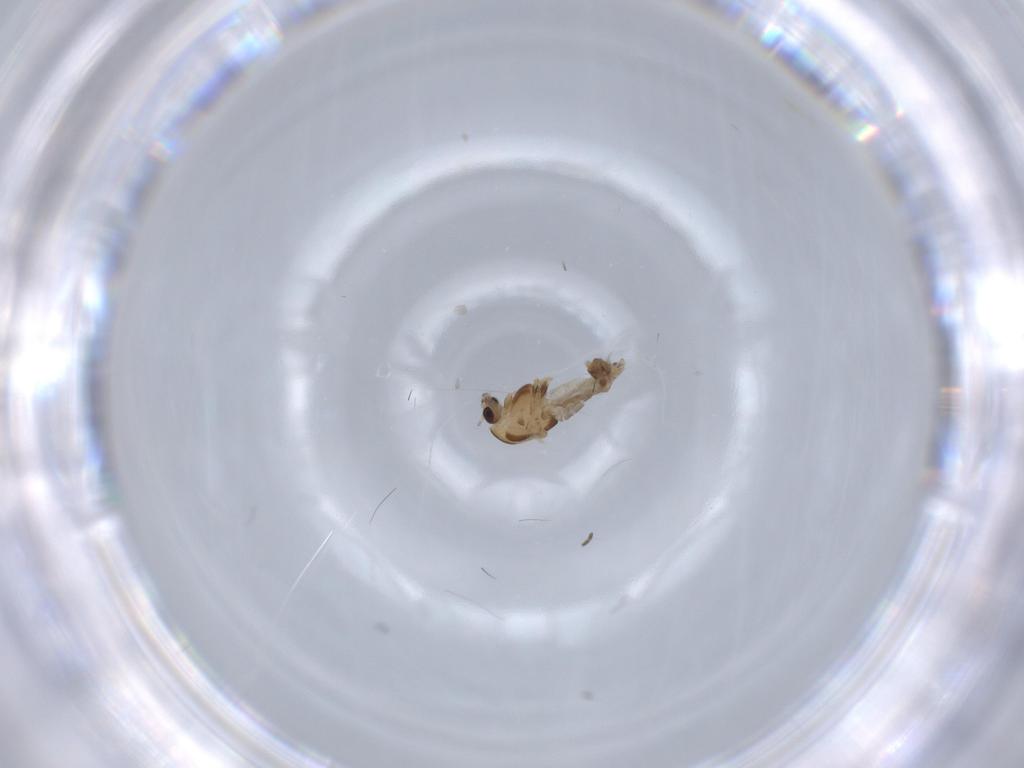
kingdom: Animalia
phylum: Arthropoda
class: Insecta
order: Diptera
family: Chironomidae
